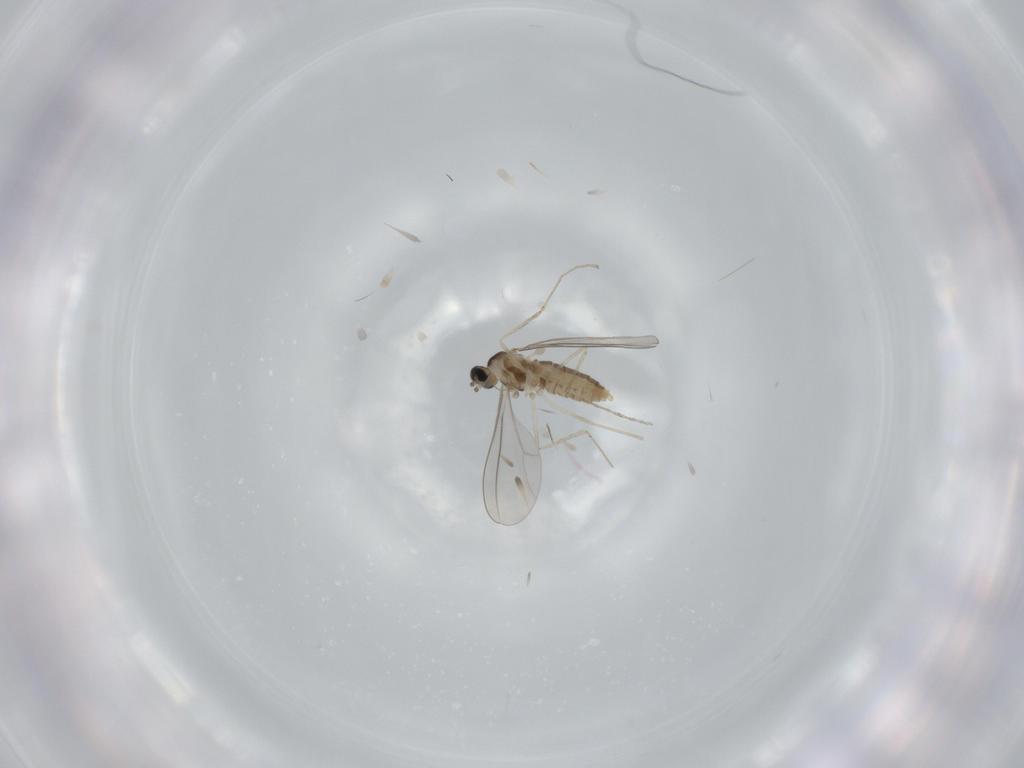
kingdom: Animalia
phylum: Arthropoda
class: Insecta
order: Diptera
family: Cecidomyiidae
